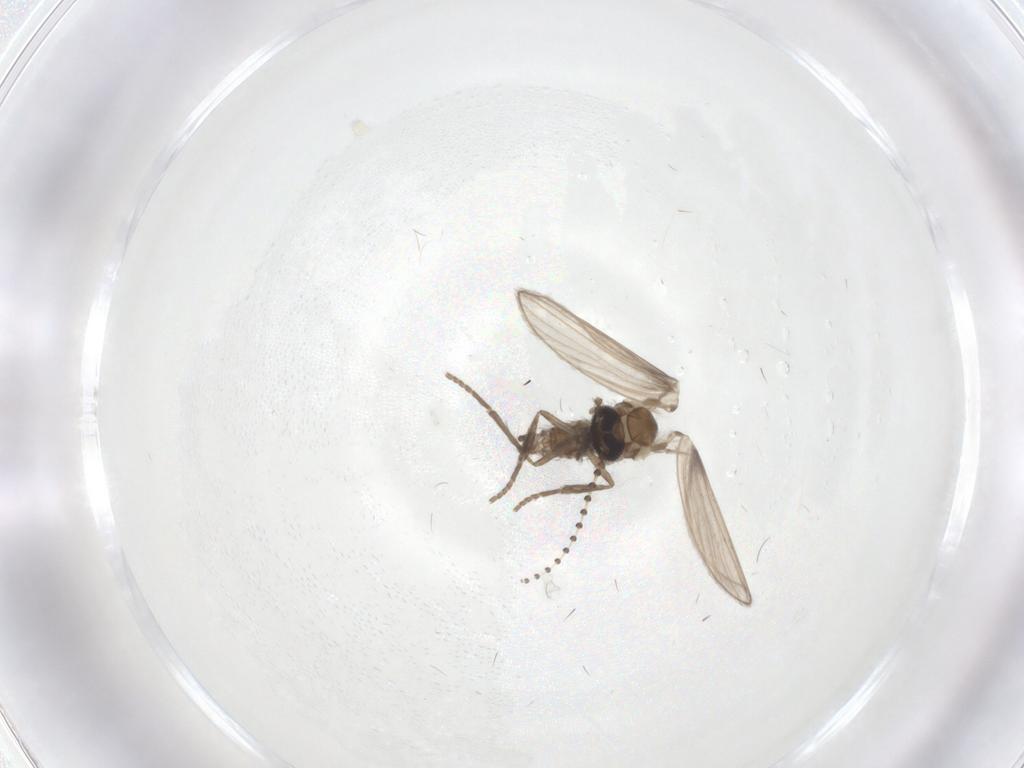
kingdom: Animalia
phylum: Arthropoda
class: Insecta
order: Diptera
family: Psychodidae
